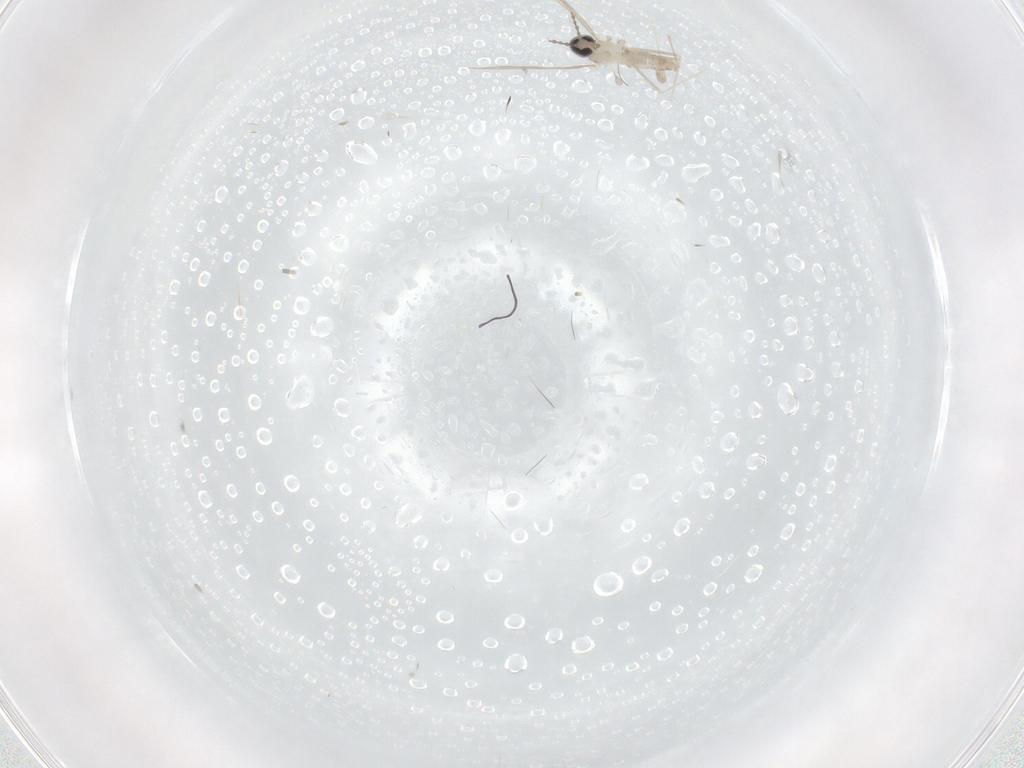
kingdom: Animalia
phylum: Arthropoda
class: Insecta
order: Diptera
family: Cecidomyiidae
